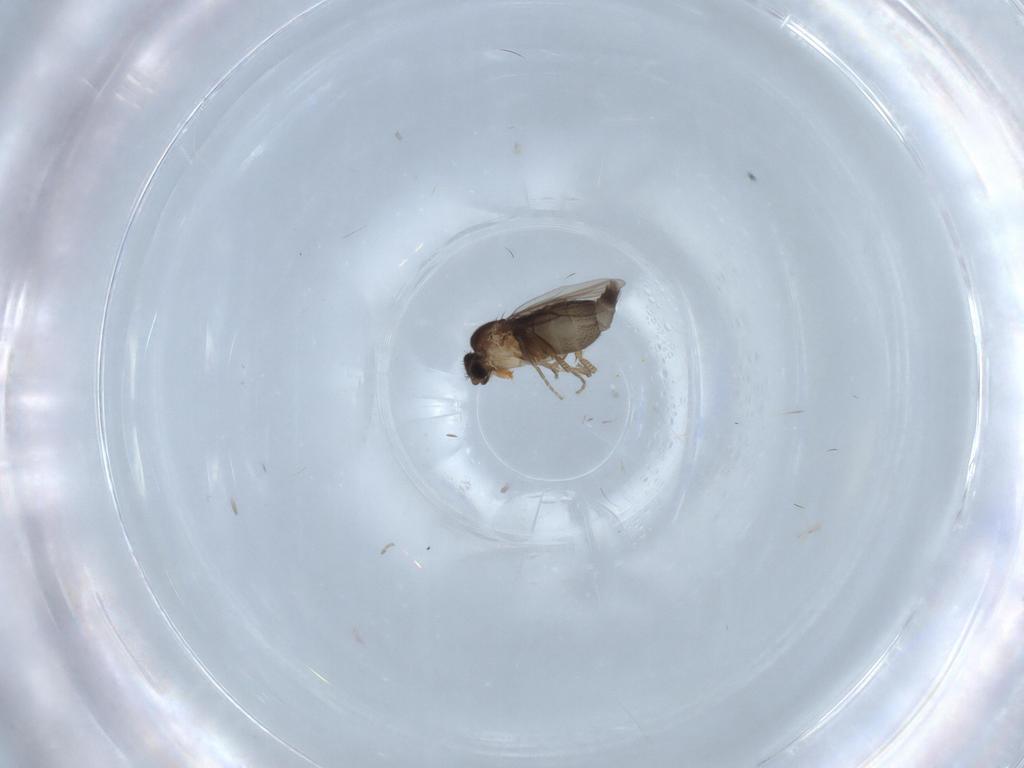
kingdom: Animalia
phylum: Arthropoda
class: Insecta
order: Diptera
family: Phoridae
